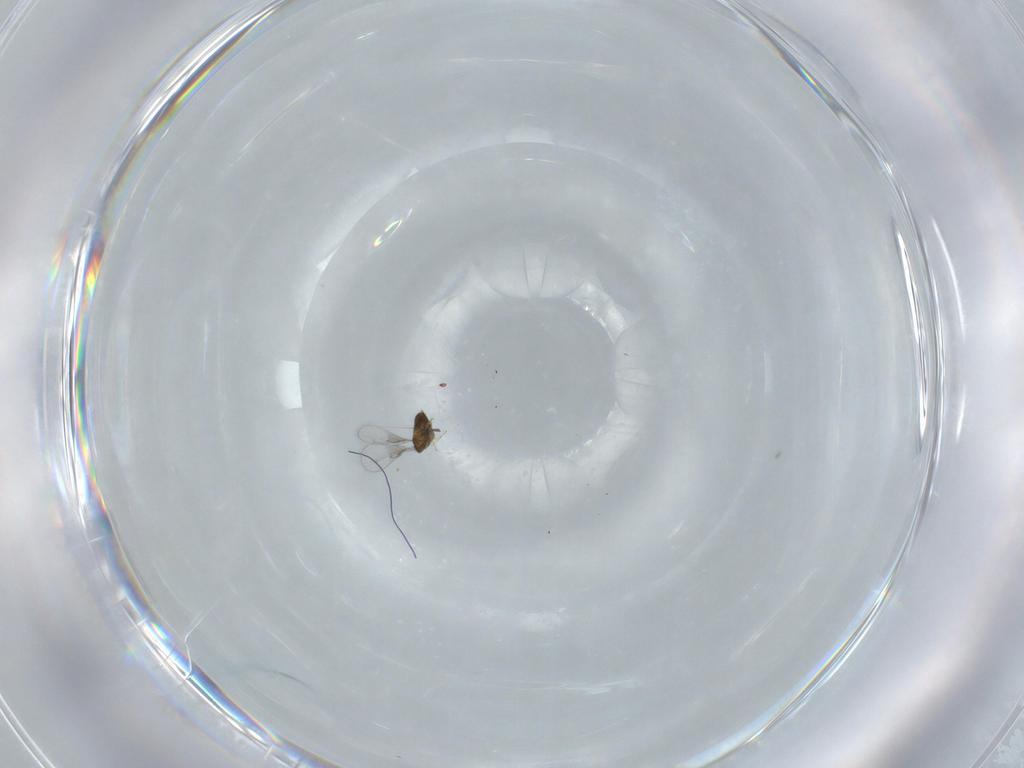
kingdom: Animalia
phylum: Arthropoda
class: Insecta
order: Hymenoptera
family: Trichogrammatidae
